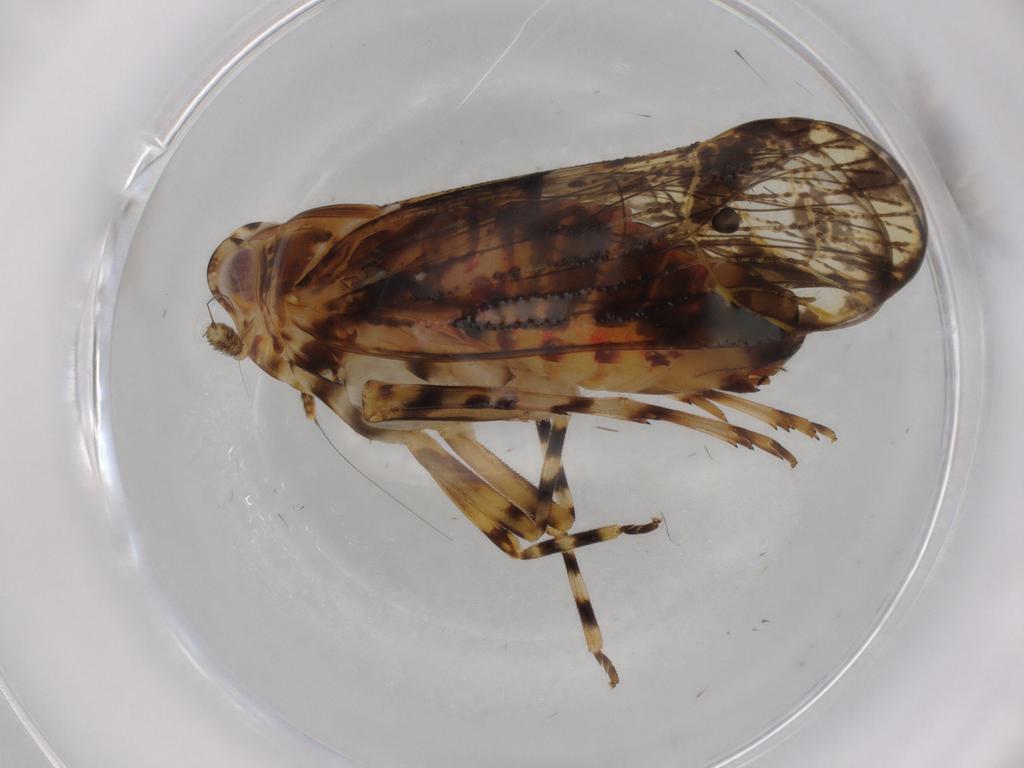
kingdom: Animalia
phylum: Arthropoda
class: Insecta
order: Hemiptera
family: Delphacidae
